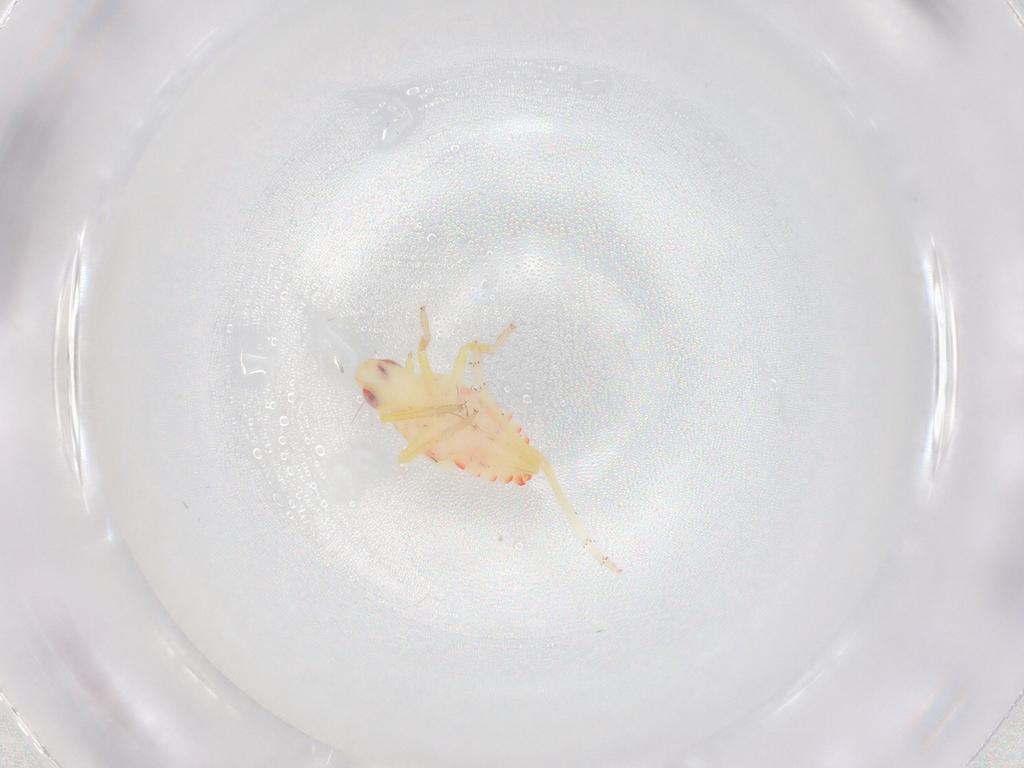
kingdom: Animalia
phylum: Arthropoda
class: Insecta
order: Hemiptera
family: Tropiduchidae
